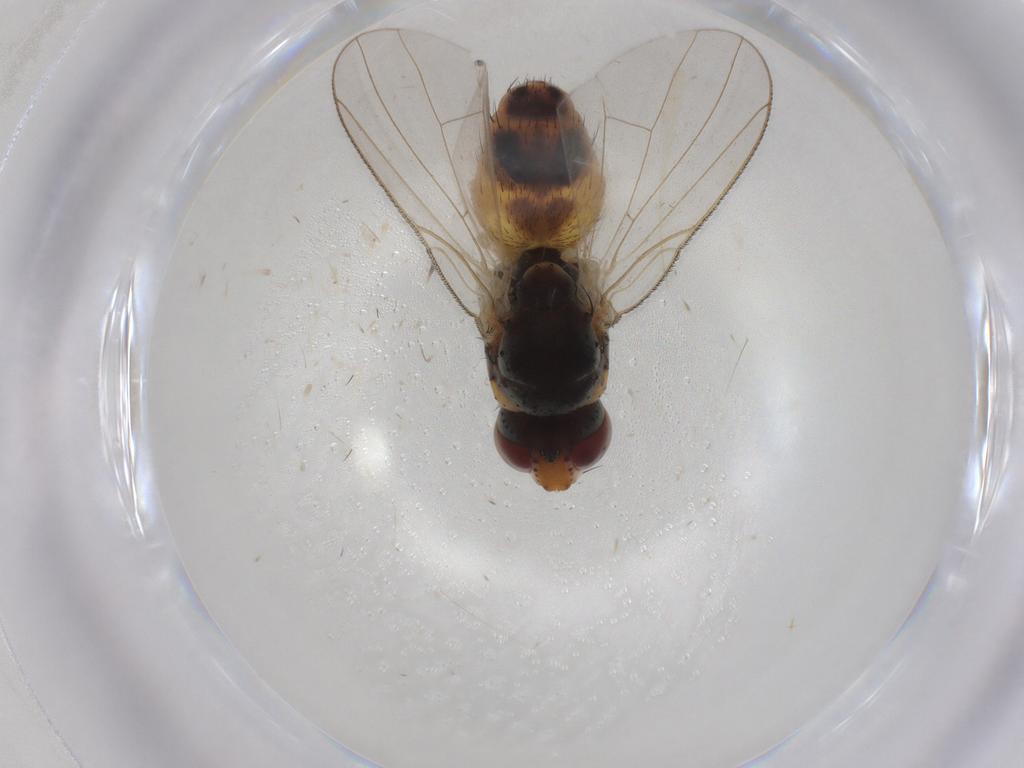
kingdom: Animalia
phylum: Arthropoda
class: Insecta
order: Diptera
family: Muscidae
